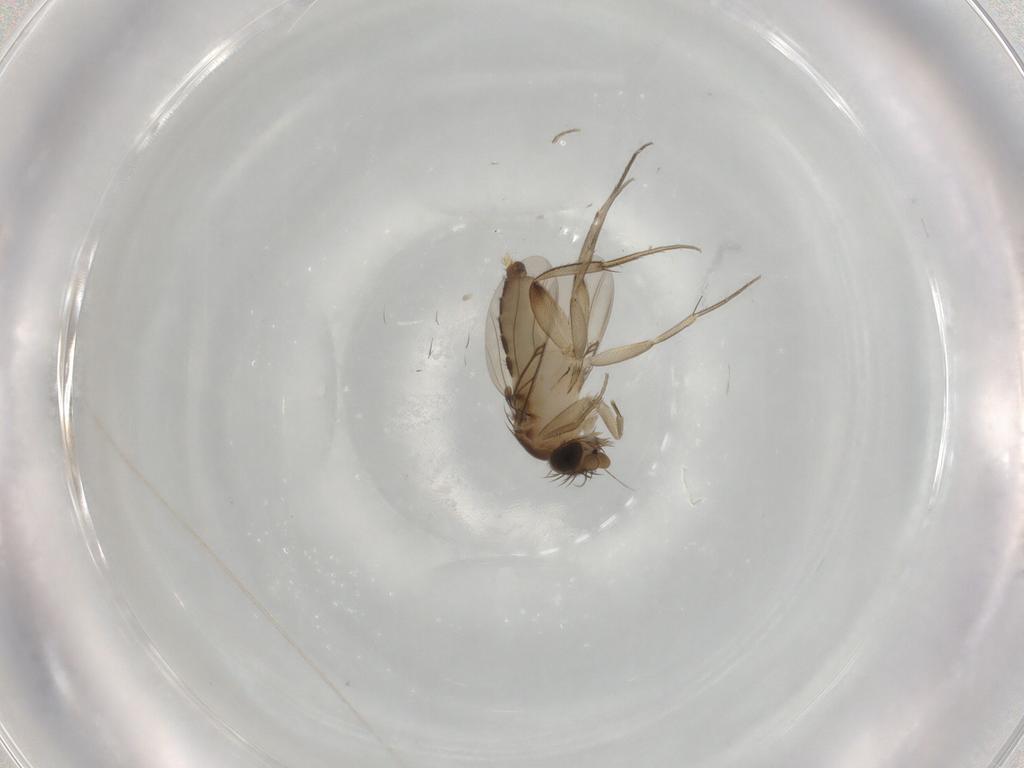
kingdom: Animalia
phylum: Arthropoda
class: Insecta
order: Diptera
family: Phoridae
